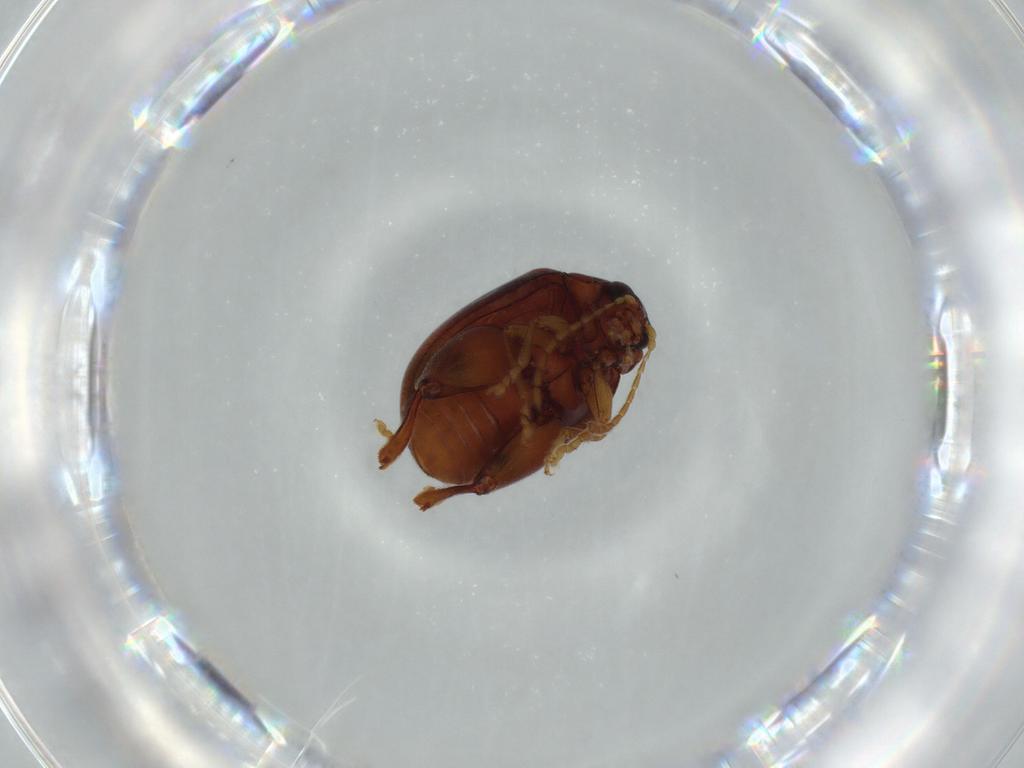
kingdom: Animalia
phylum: Arthropoda
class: Insecta
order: Coleoptera
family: Chrysomelidae
